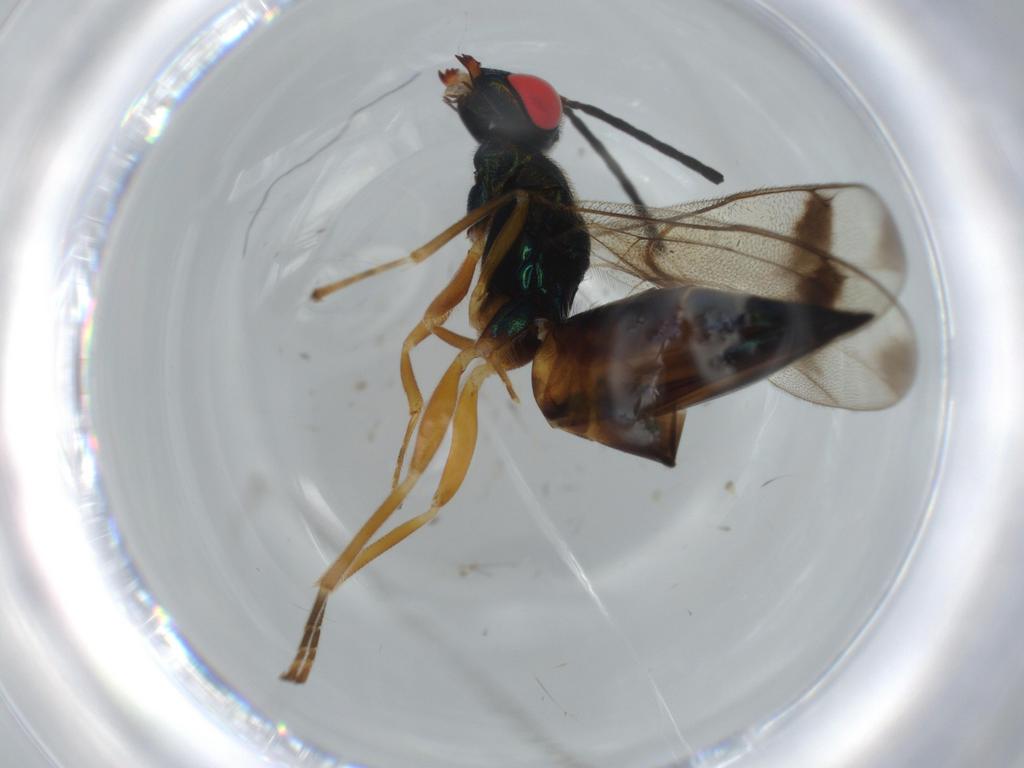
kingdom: Animalia
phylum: Arthropoda
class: Insecta
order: Hymenoptera
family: Pteromalidae
